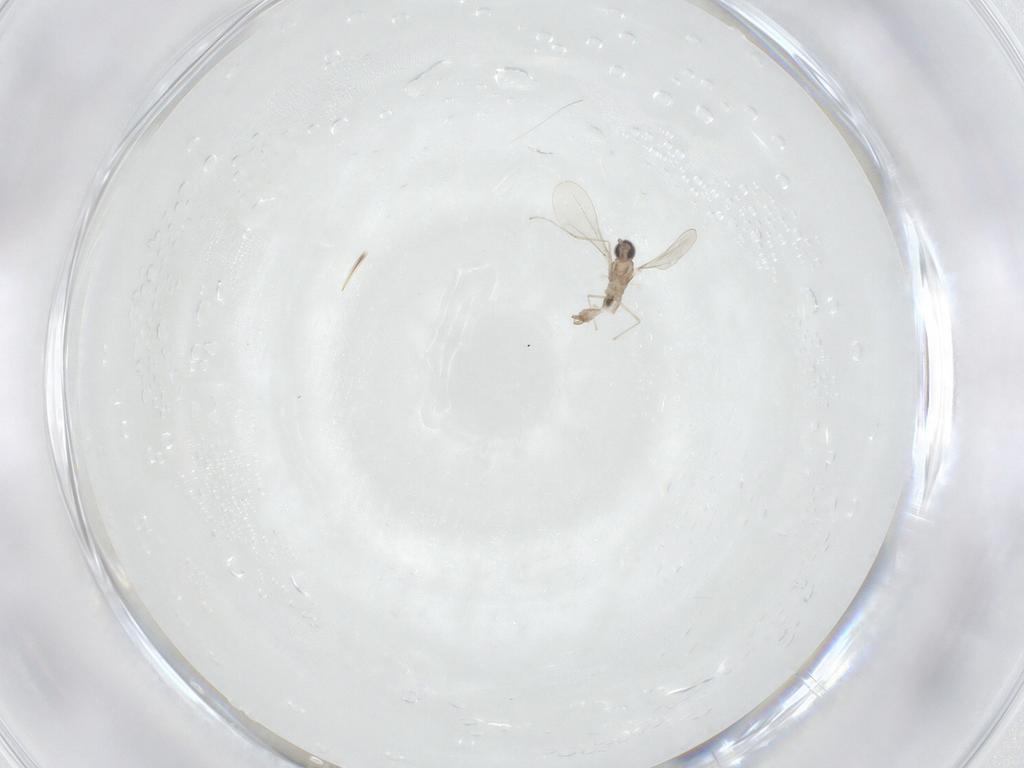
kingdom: Animalia
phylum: Arthropoda
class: Insecta
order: Diptera
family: Cecidomyiidae
